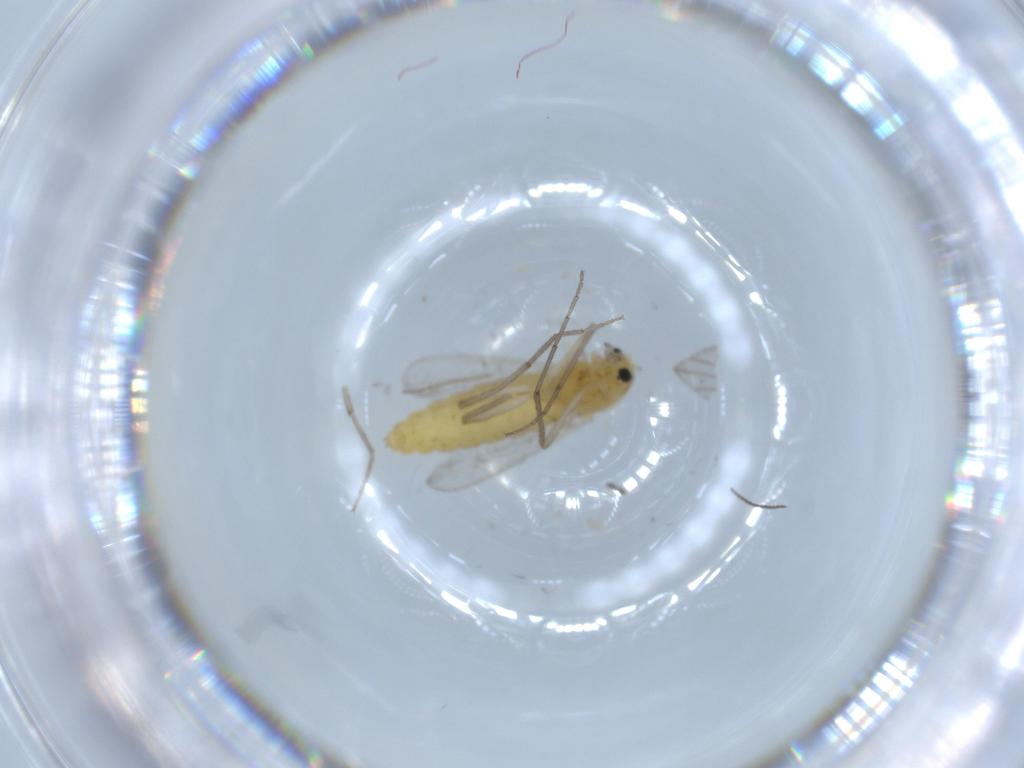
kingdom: Animalia
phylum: Arthropoda
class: Insecta
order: Diptera
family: Chironomidae
